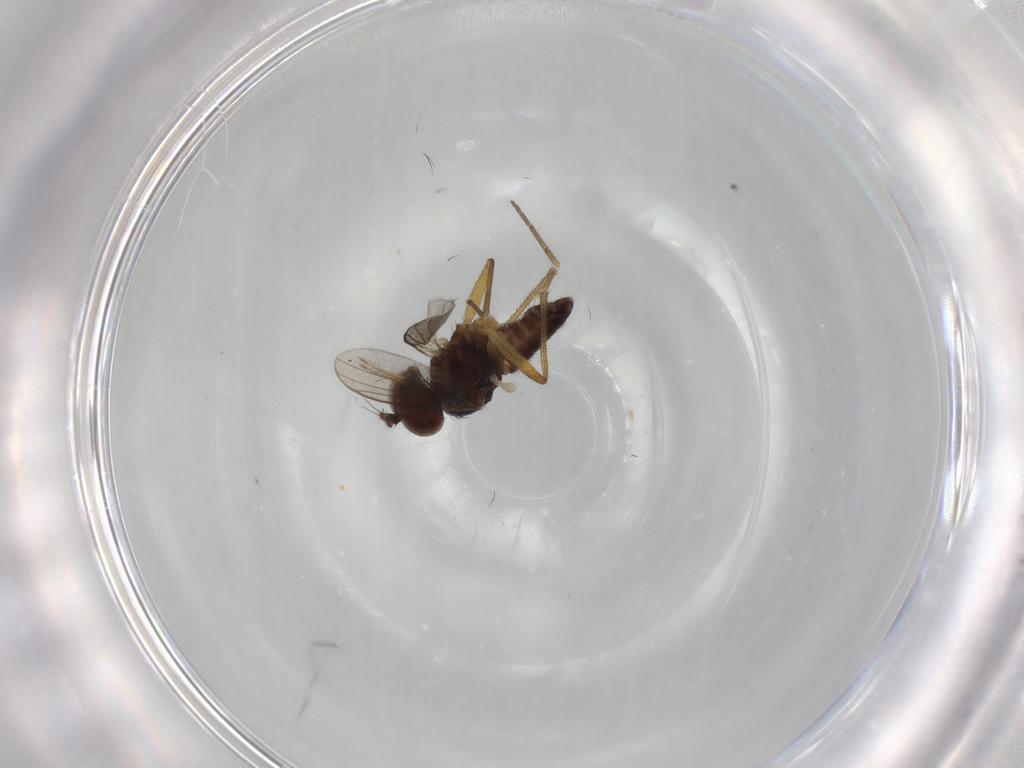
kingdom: Animalia
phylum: Arthropoda
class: Insecta
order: Diptera
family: Dolichopodidae
